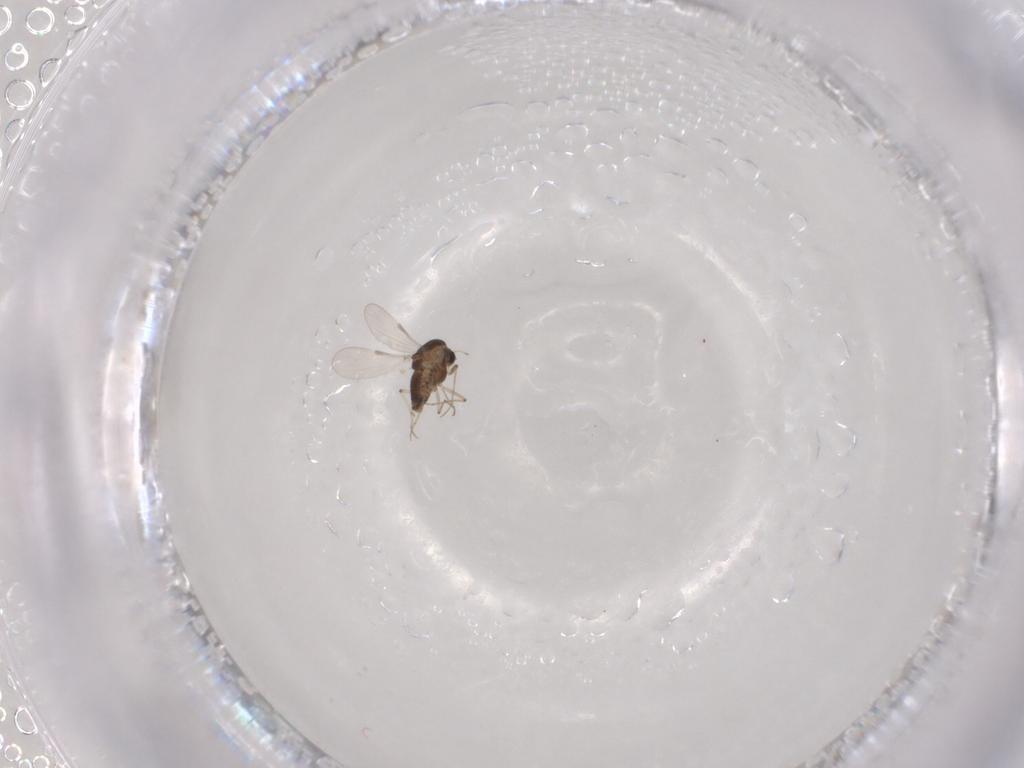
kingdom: Animalia
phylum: Arthropoda
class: Insecta
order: Diptera
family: Chironomidae
